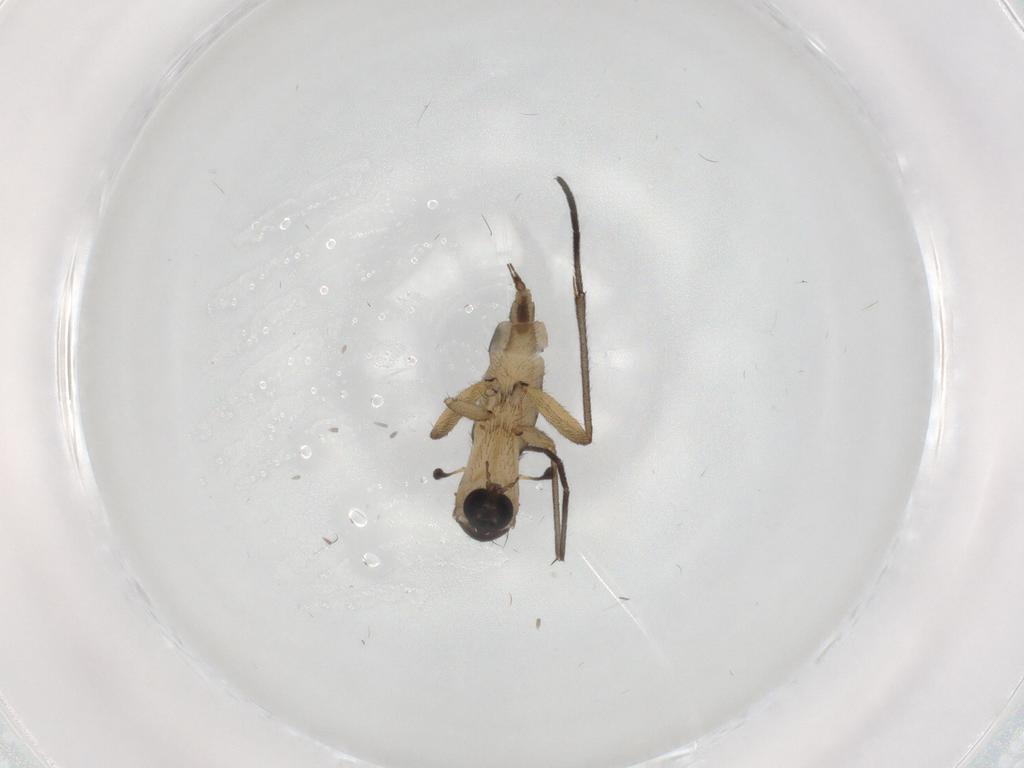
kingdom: Animalia
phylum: Arthropoda
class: Insecta
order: Diptera
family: Sciaridae
